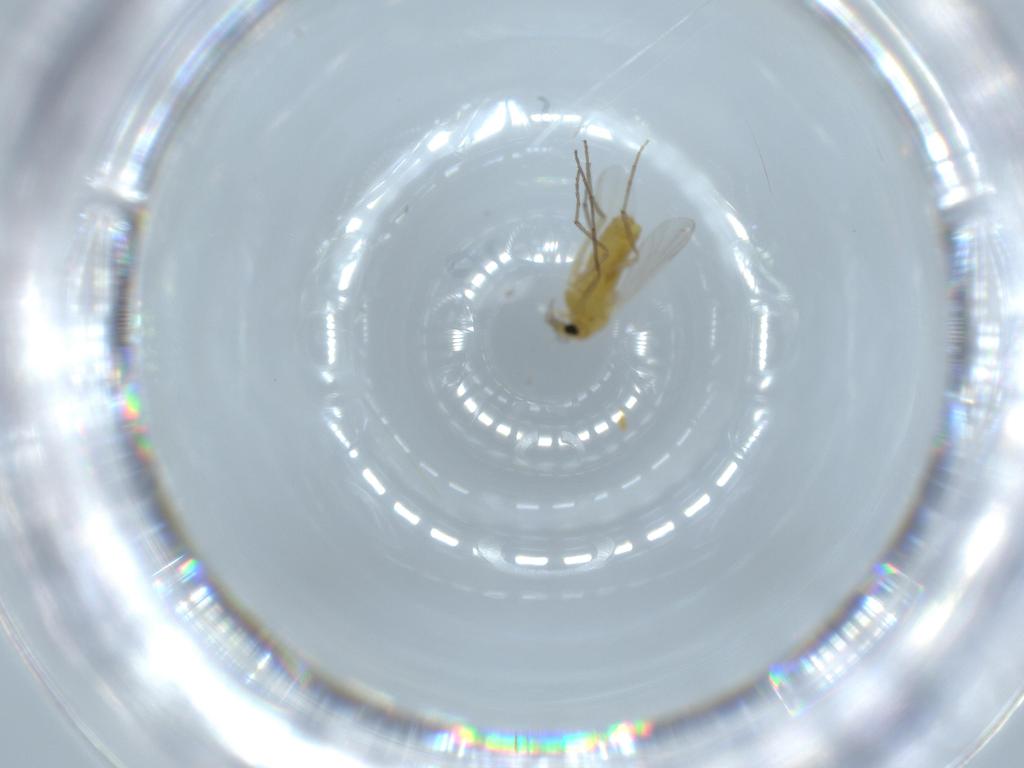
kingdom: Animalia
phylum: Arthropoda
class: Insecta
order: Diptera
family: Chironomidae
